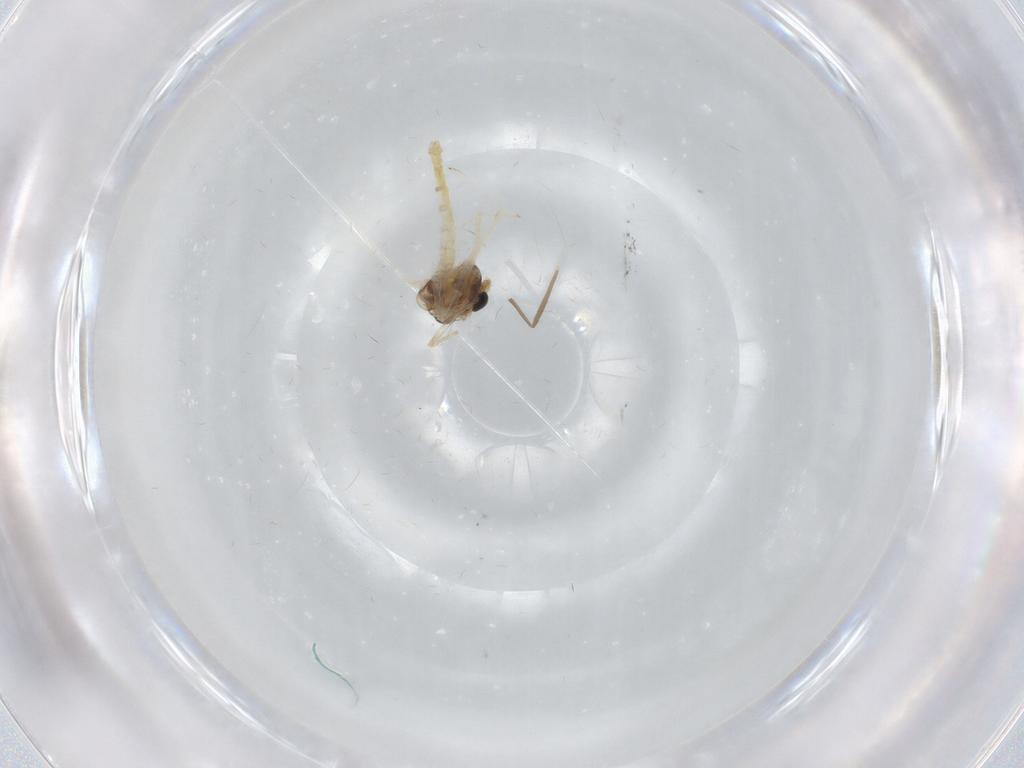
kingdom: Animalia
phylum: Arthropoda
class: Insecta
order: Diptera
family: Chironomidae
